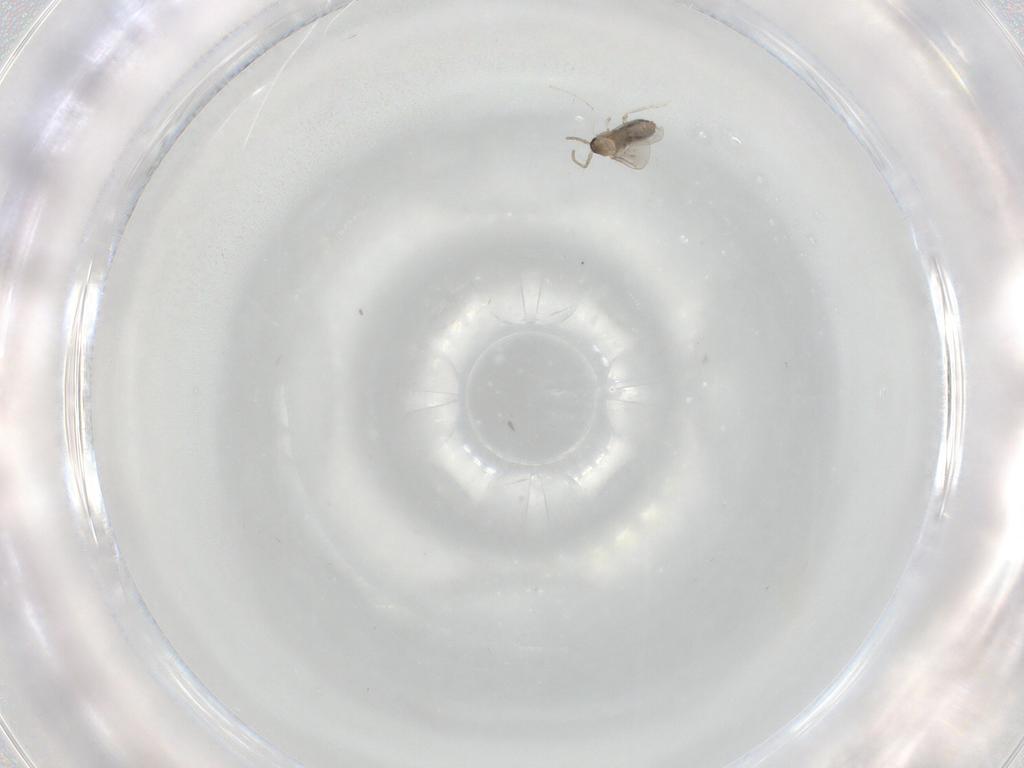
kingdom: Animalia
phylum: Arthropoda
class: Insecta
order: Diptera
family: Cecidomyiidae
